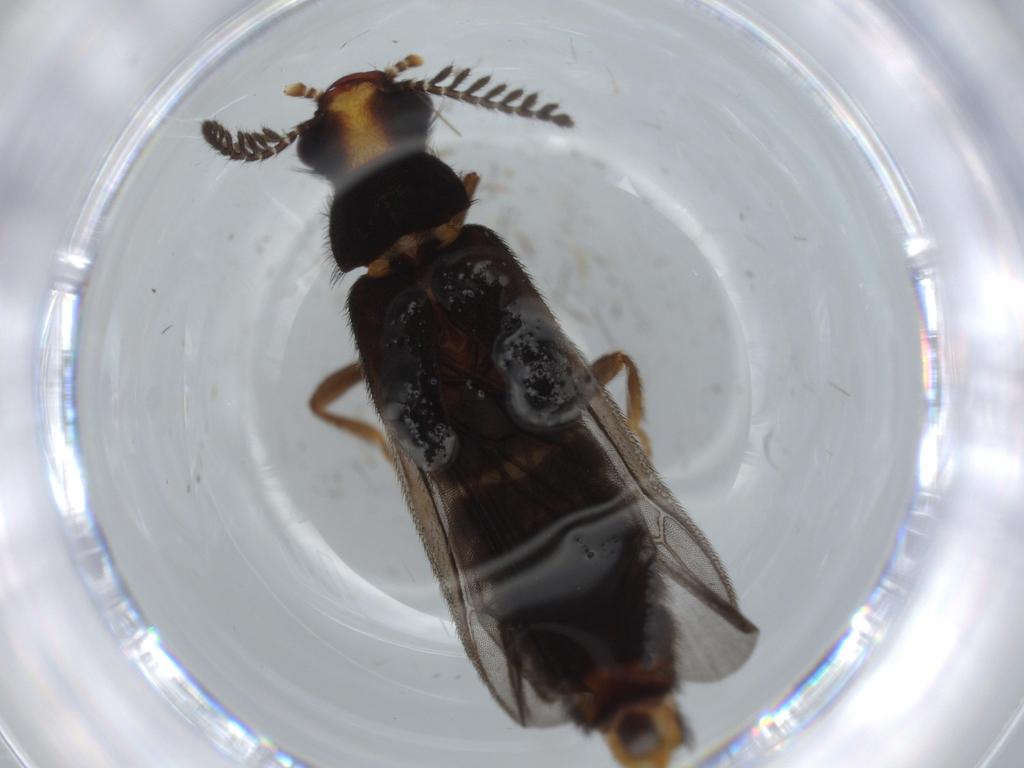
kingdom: Animalia
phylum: Arthropoda
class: Insecta
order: Coleoptera
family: Phengodidae
